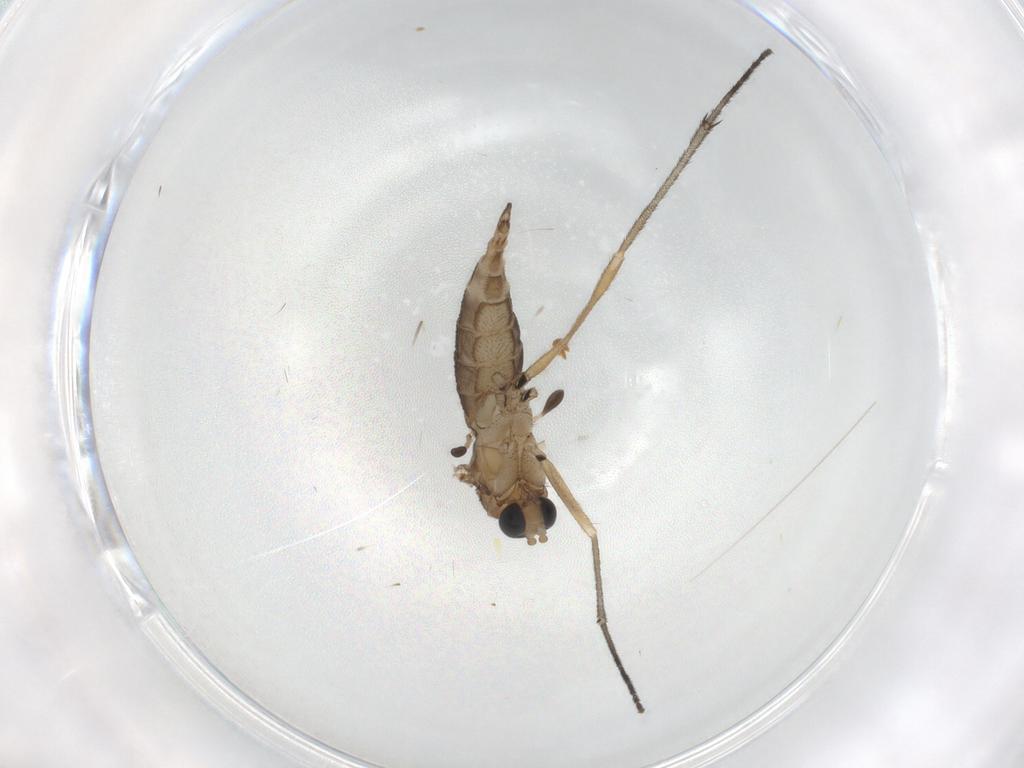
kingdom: Animalia
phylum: Arthropoda
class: Insecta
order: Diptera
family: Sciaridae
